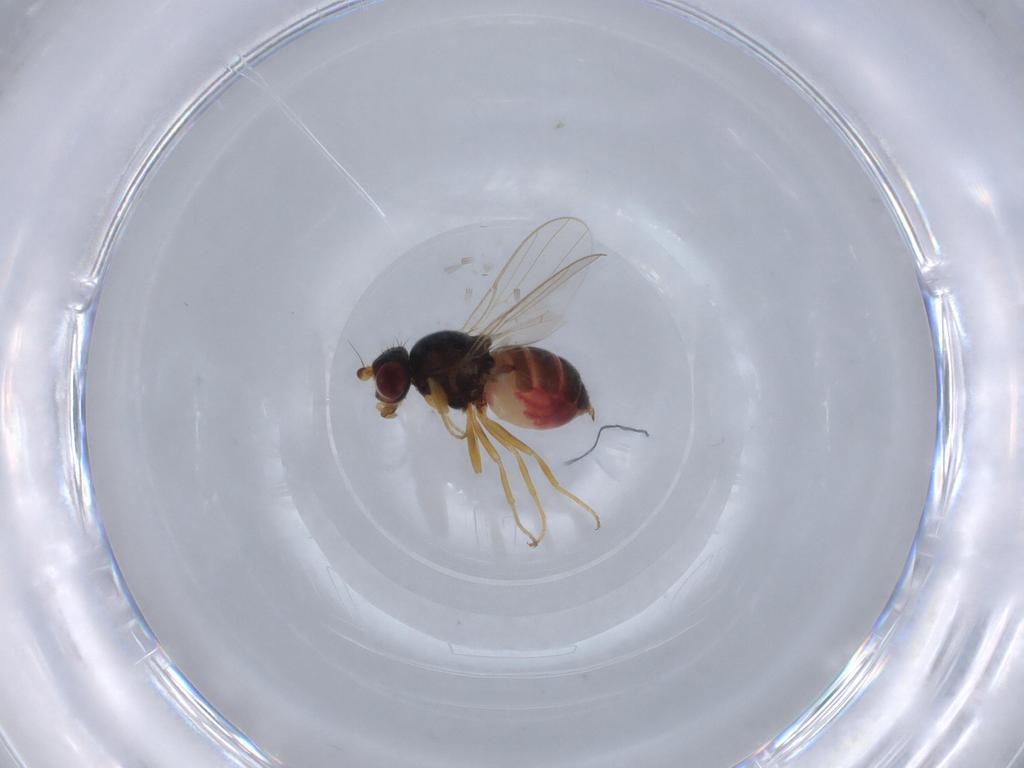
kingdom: Animalia
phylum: Arthropoda
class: Insecta
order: Diptera
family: Chloropidae
